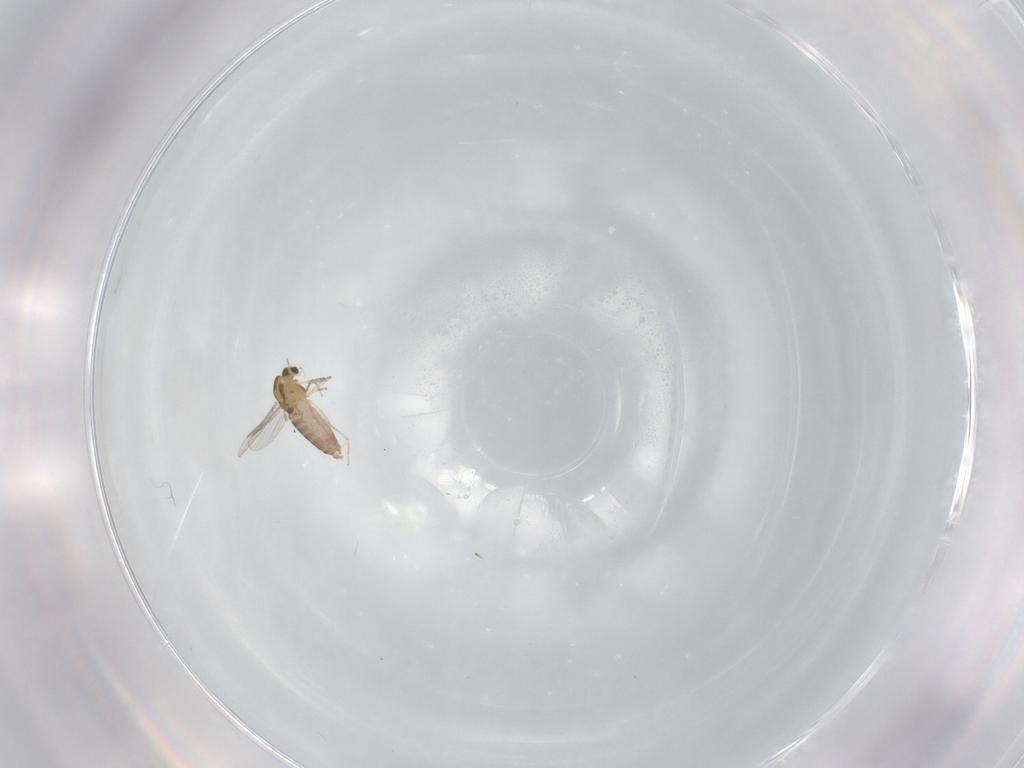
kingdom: Animalia
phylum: Arthropoda
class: Insecta
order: Diptera
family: Chironomidae
